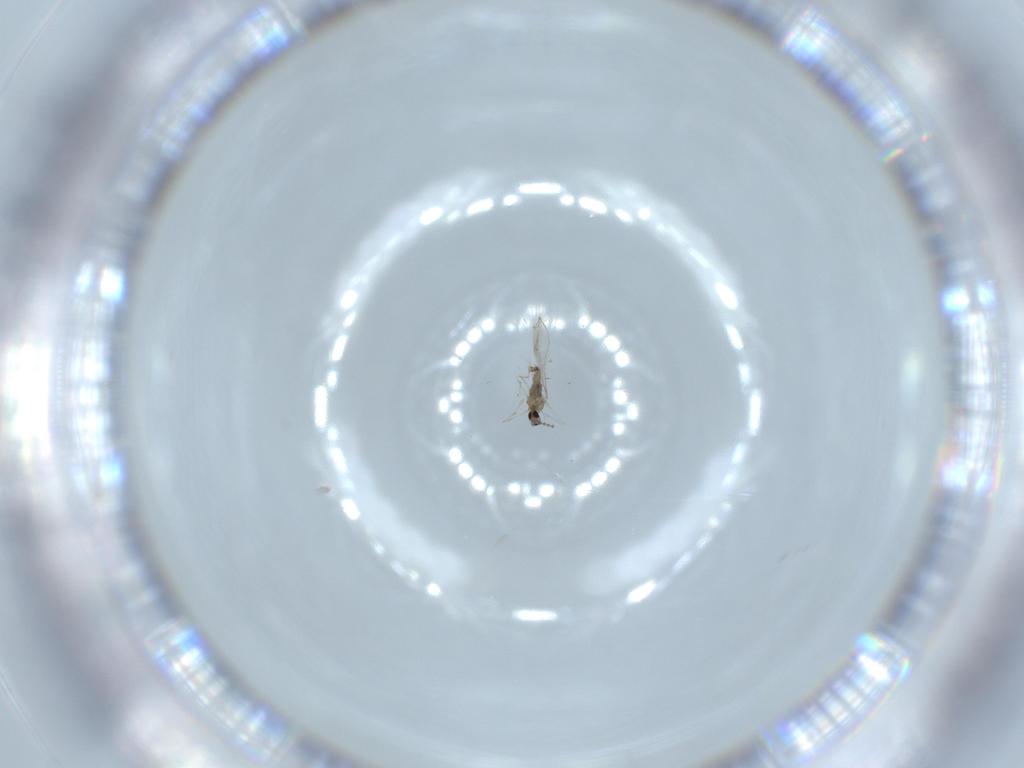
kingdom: Animalia
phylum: Arthropoda
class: Insecta
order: Diptera
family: Cecidomyiidae
